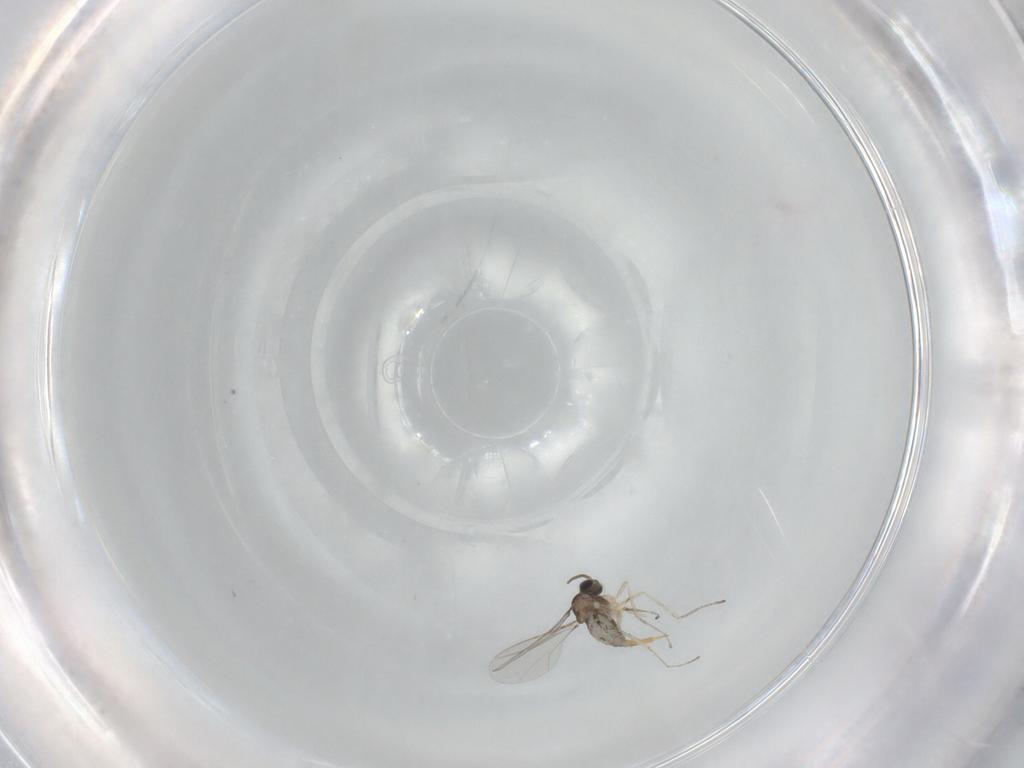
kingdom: Animalia
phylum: Arthropoda
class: Insecta
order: Diptera
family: Cecidomyiidae
